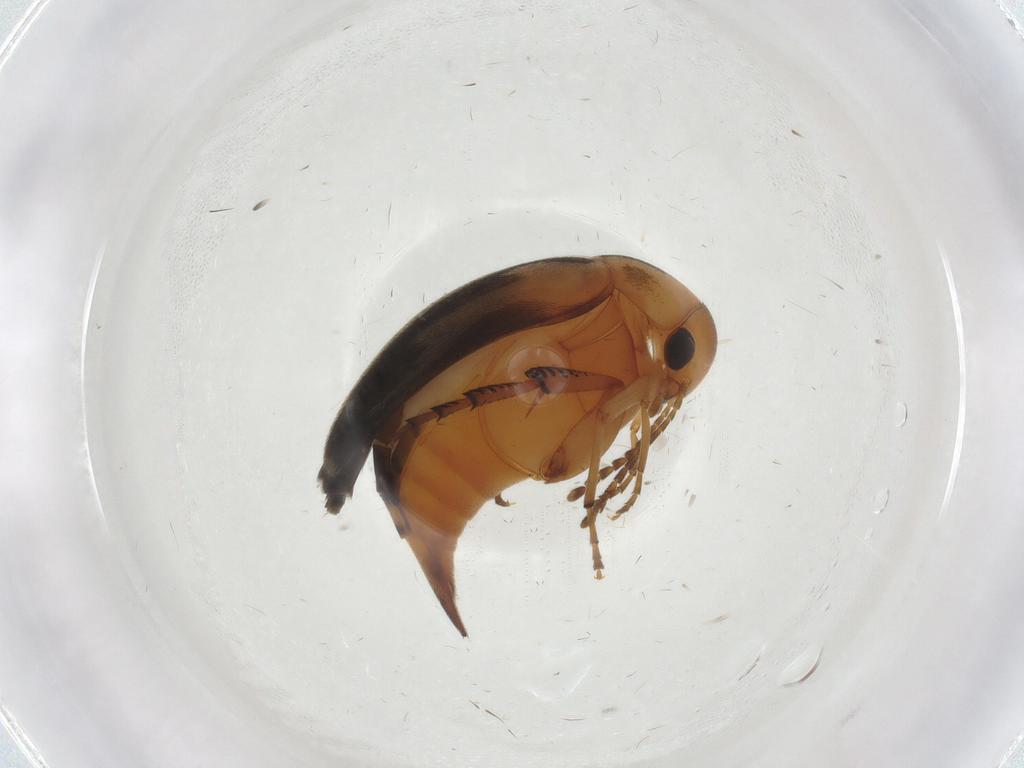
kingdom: Animalia
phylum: Arthropoda
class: Insecta
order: Coleoptera
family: Mordellidae
